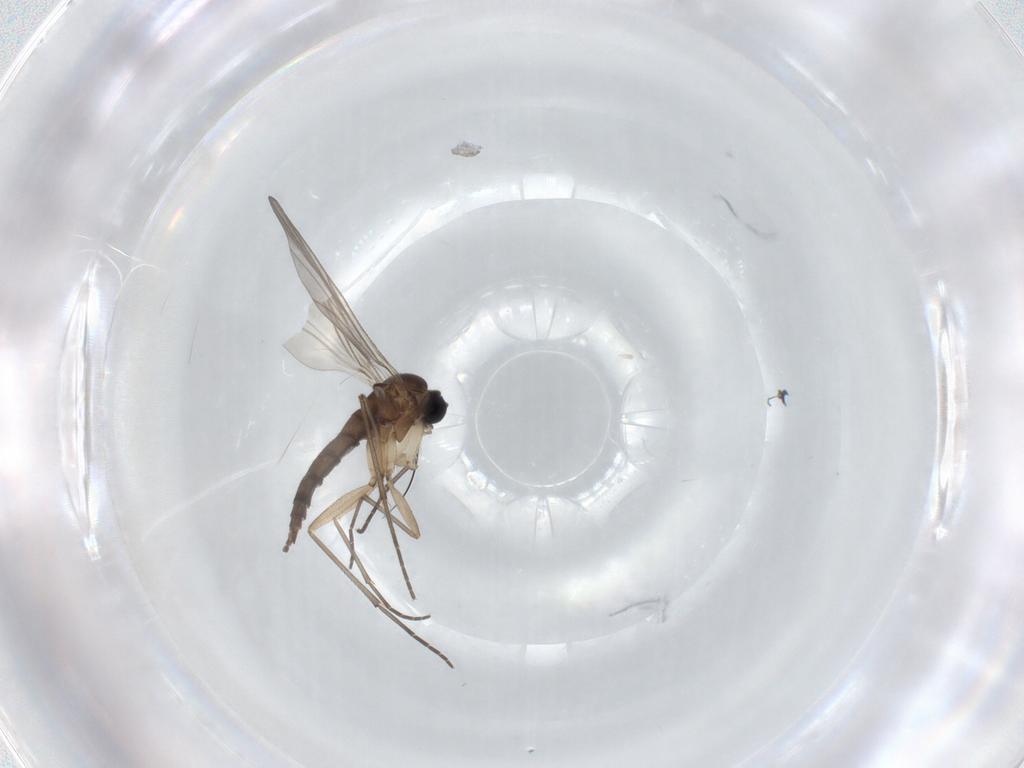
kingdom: Animalia
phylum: Arthropoda
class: Insecta
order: Diptera
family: Sciaridae
